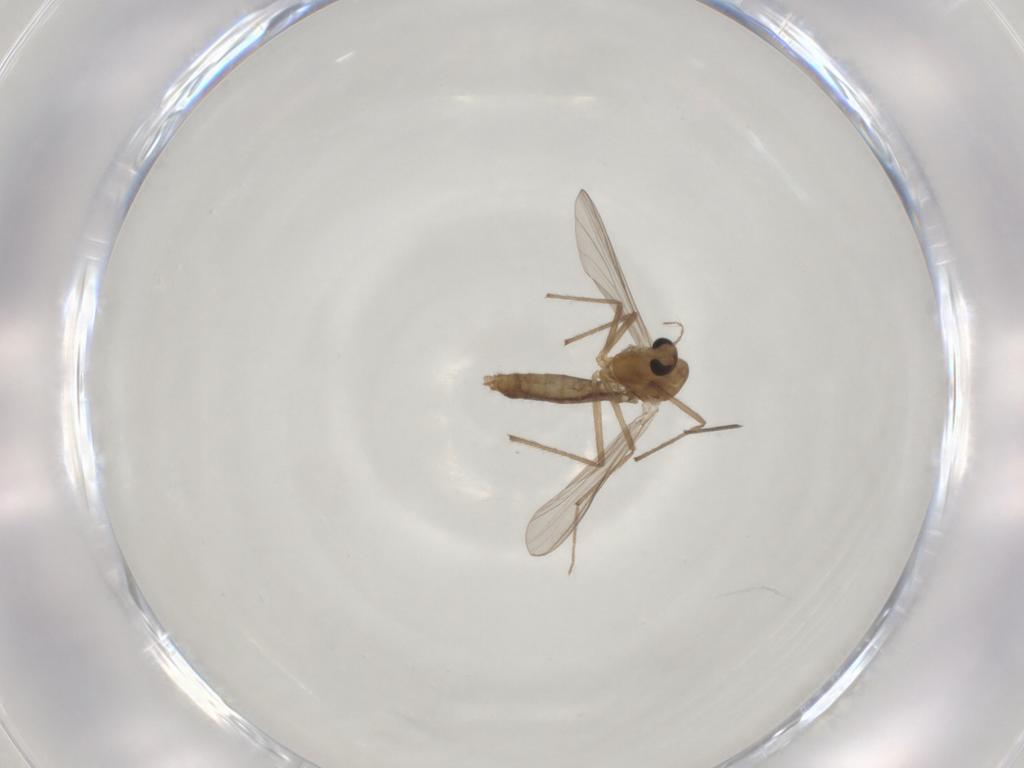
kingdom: Animalia
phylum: Arthropoda
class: Insecta
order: Diptera
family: Chironomidae
